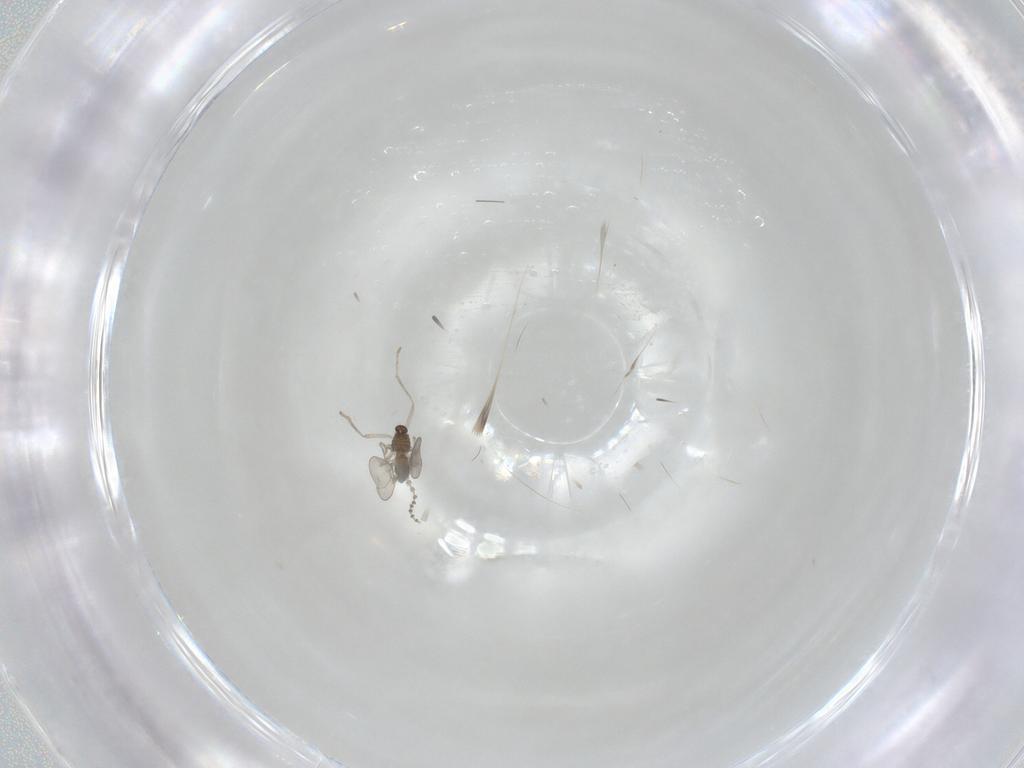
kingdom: Animalia
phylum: Arthropoda
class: Insecta
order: Diptera
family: Cecidomyiidae
